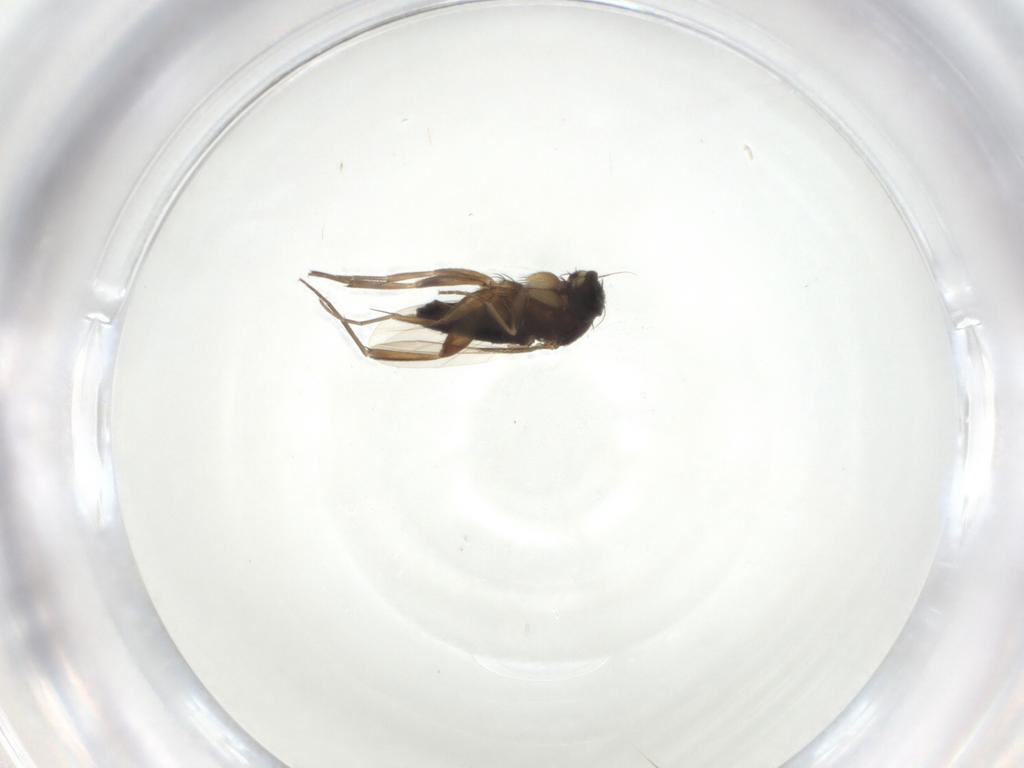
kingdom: Animalia
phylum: Arthropoda
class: Insecta
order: Diptera
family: Phoridae
